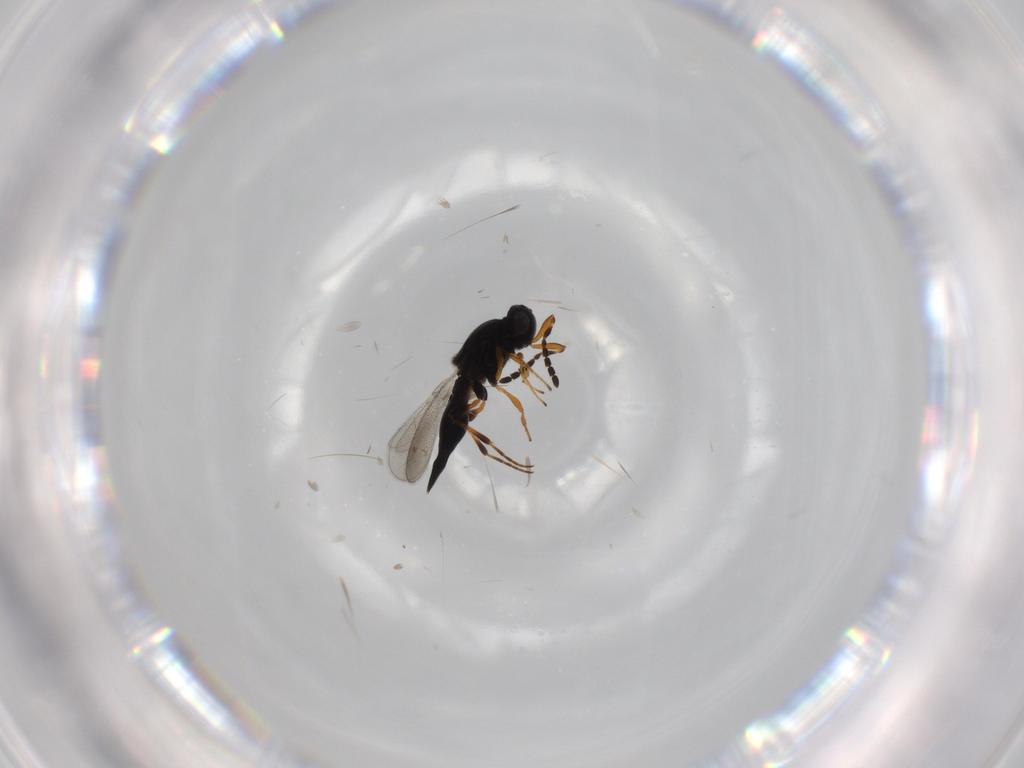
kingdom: Animalia
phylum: Arthropoda
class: Insecta
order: Hymenoptera
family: Platygastridae
